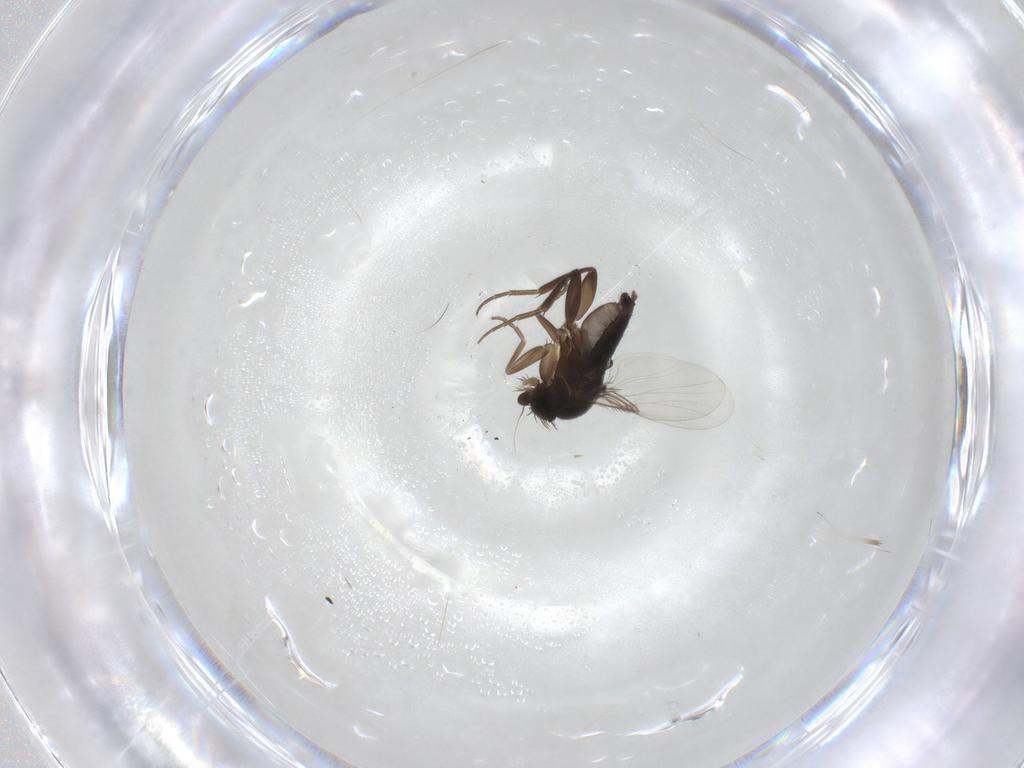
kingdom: Animalia
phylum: Arthropoda
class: Insecta
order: Diptera
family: Phoridae
